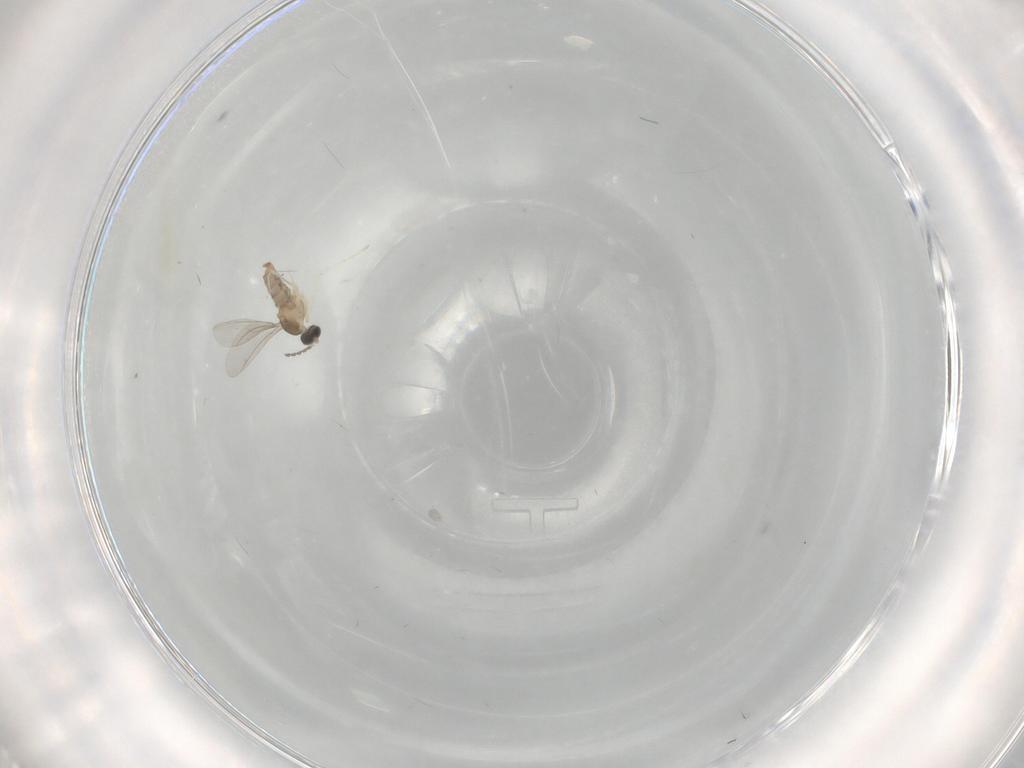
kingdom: Animalia
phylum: Arthropoda
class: Insecta
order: Diptera
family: Cecidomyiidae
